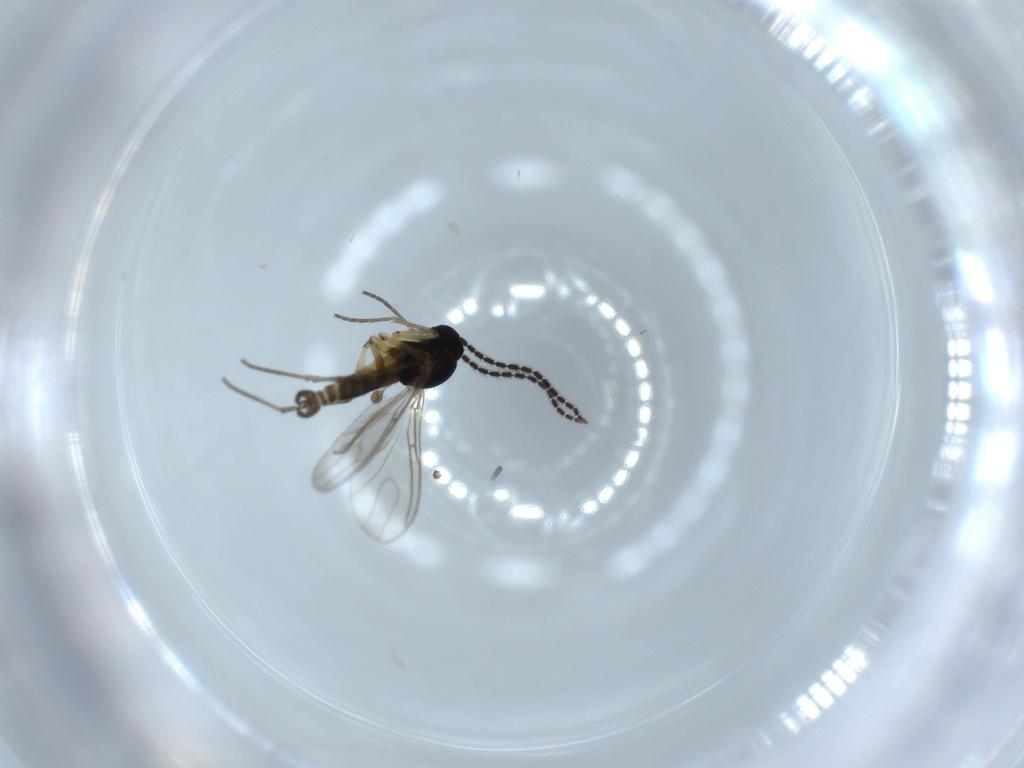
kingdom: Animalia
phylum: Arthropoda
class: Insecta
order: Diptera
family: Sciaridae
